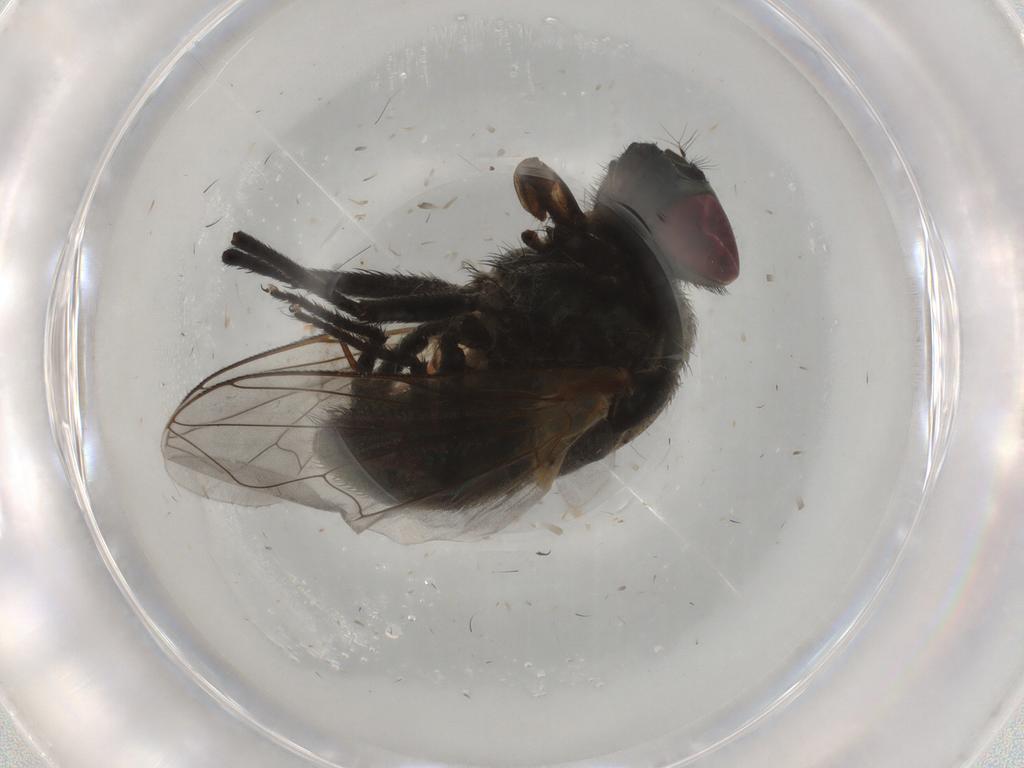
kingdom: Animalia
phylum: Arthropoda
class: Insecta
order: Diptera
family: Muscidae
